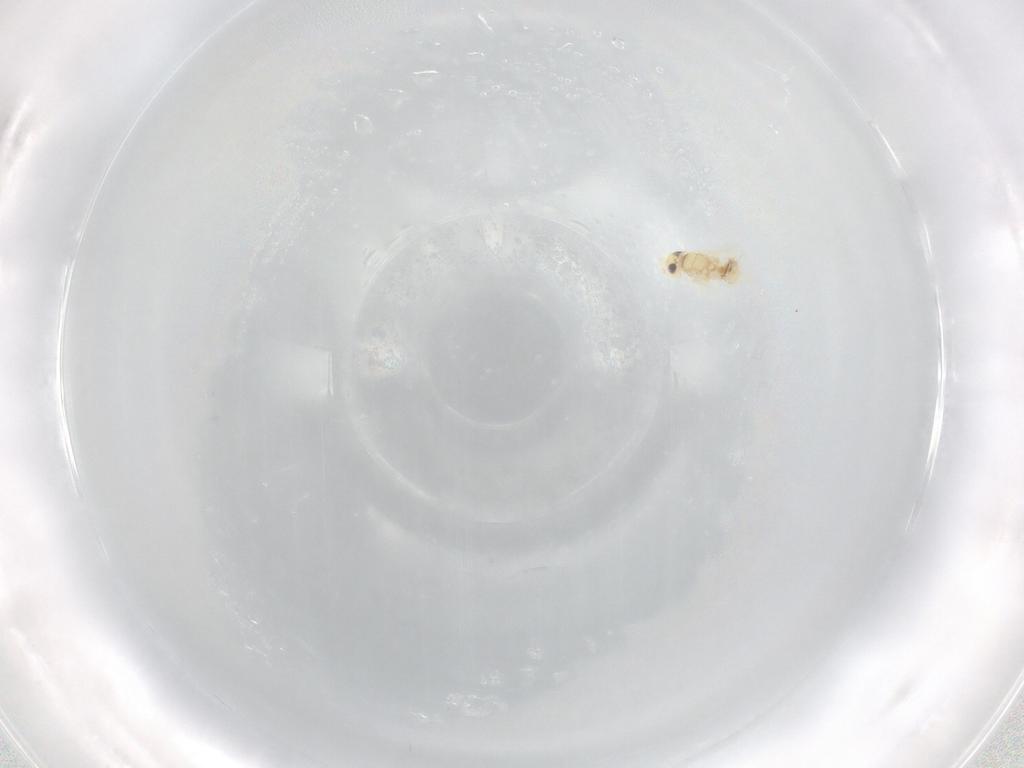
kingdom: Animalia
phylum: Arthropoda
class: Insecta
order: Hymenoptera
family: Encyrtidae
